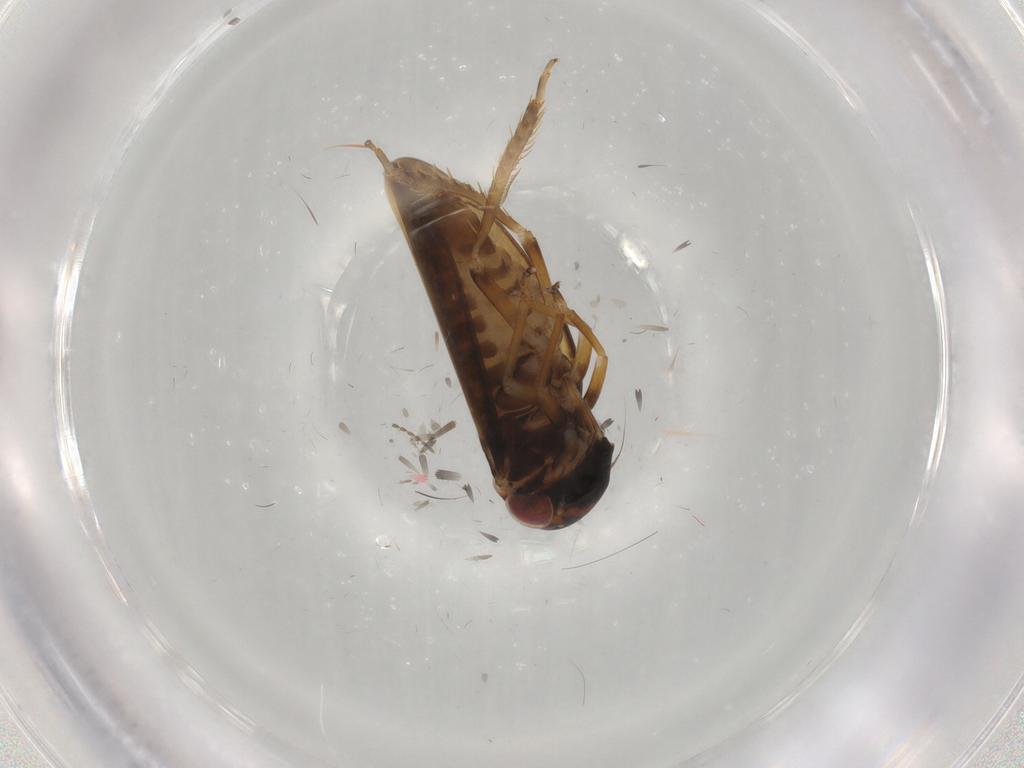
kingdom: Animalia
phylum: Arthropoda
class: Insecta
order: Hemiptera
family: Cicadellidae
